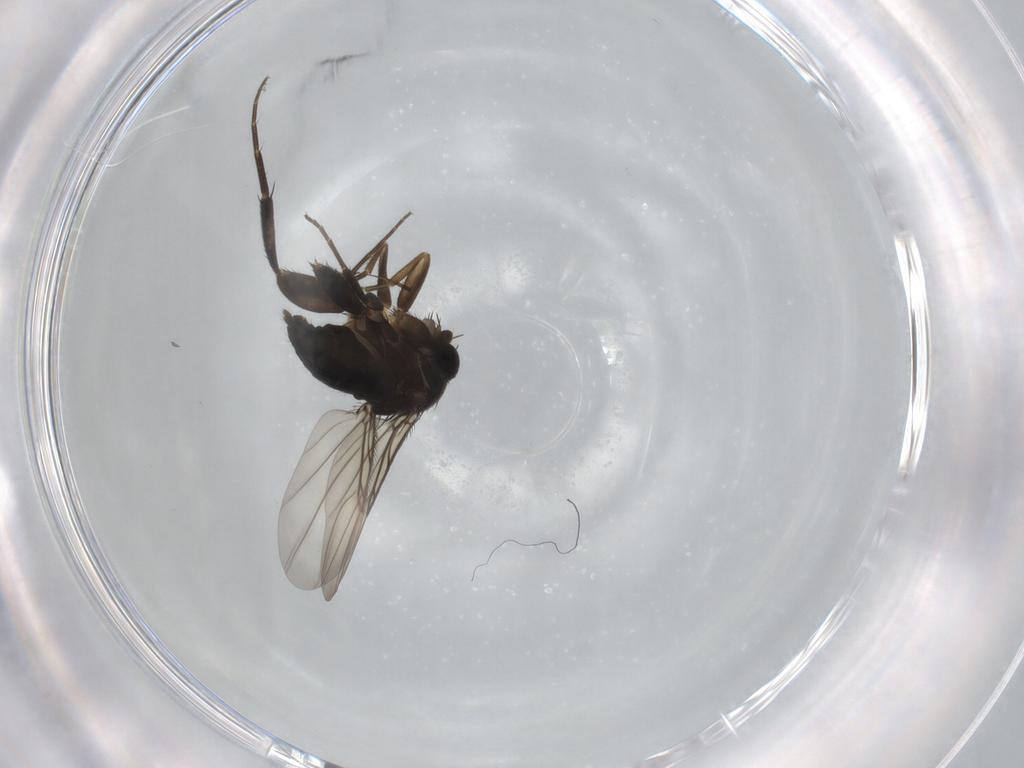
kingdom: Animalia
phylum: Arthropoda
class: Insecta
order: Diptera
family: Phoridae
